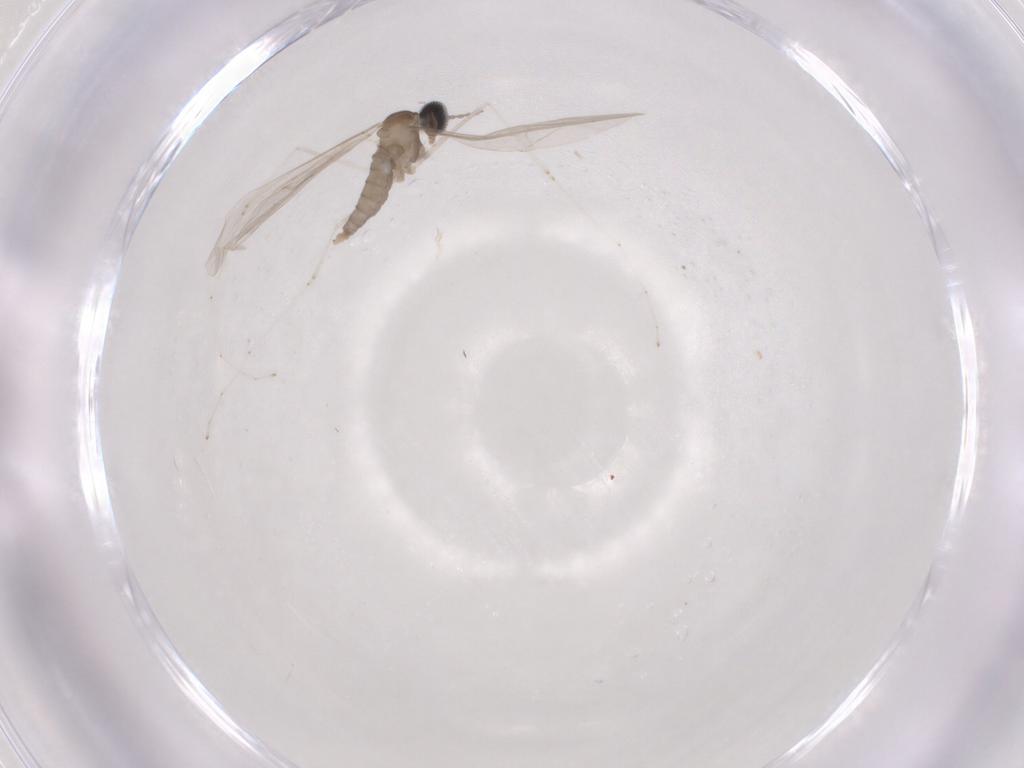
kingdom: Animalia
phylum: Arthropoda
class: Insecta
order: Diptera
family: Cecidomyiidae
